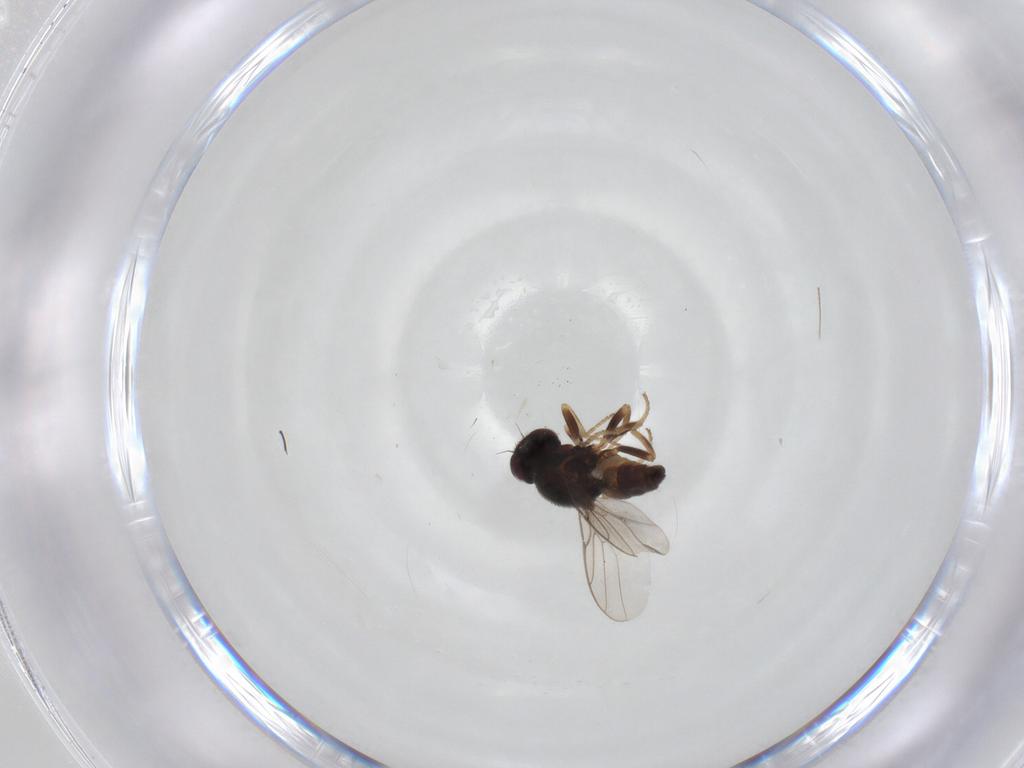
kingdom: Animalia
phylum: Arthropoda
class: Insecta
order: Diptera
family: Chloropidae
